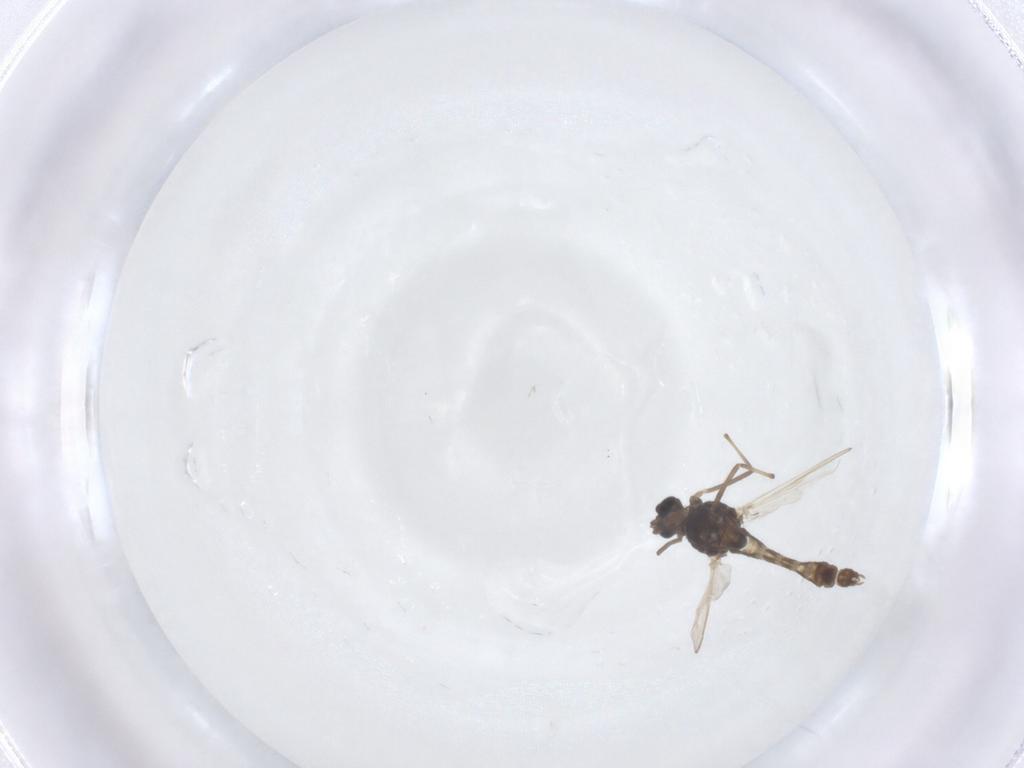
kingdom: Animalia
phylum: Arthropoda
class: Insecta
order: Diptera
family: Chironomidae
